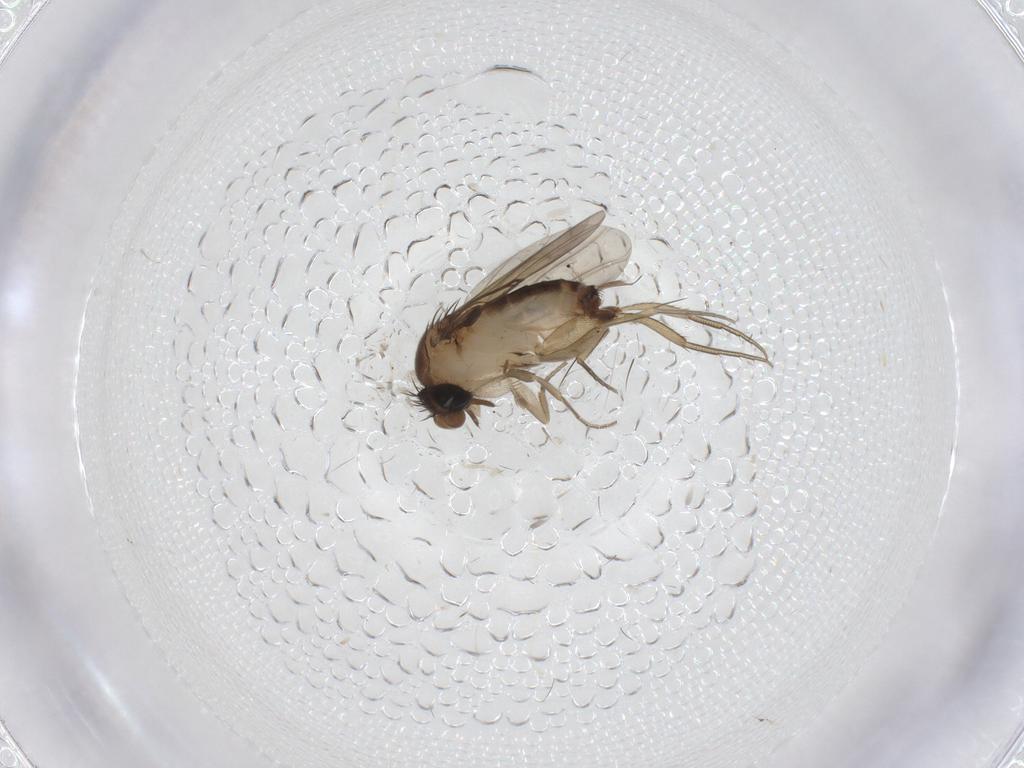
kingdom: Animalia
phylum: Arthropoda
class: Insecta
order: Diptera
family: Phoridae
